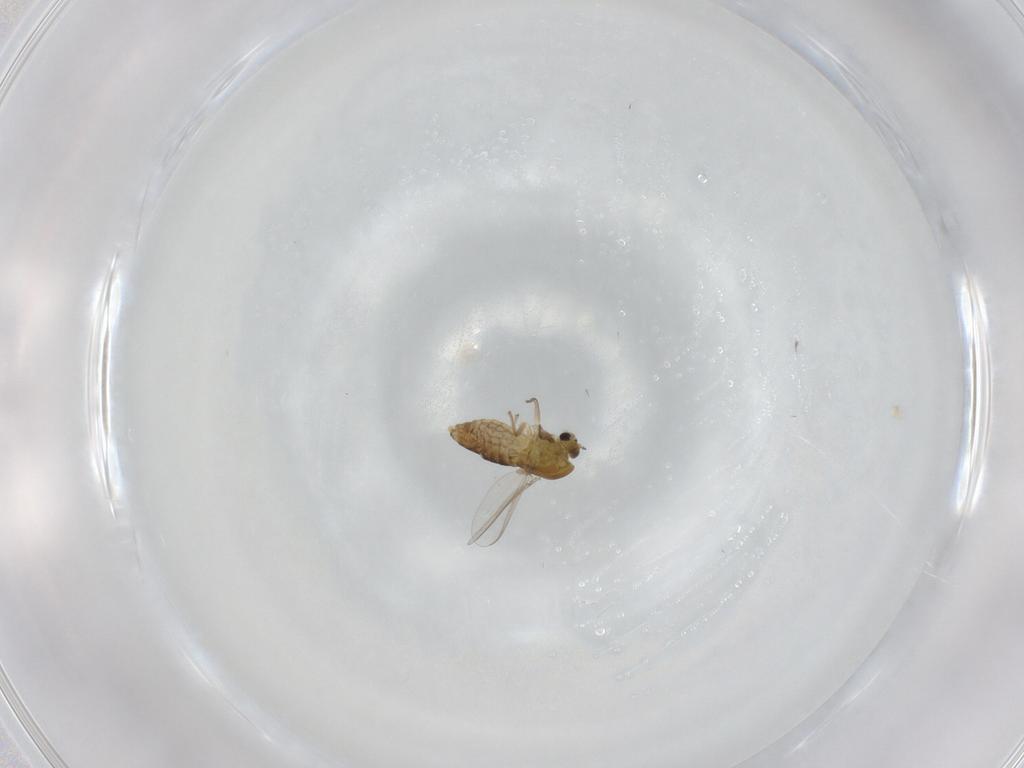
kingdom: Animalia
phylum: Arthropoda
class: Insecta
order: Diptera
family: Chironomidae
